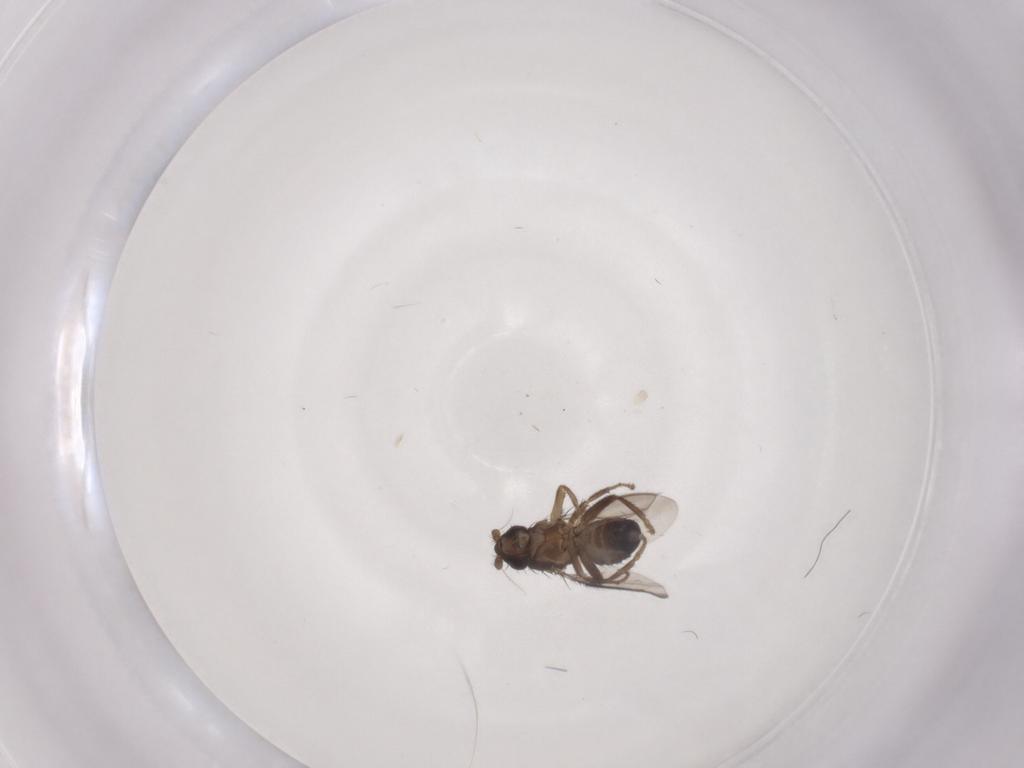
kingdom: Animalia
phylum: Arthropoda
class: Insecta
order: Diptera
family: Sphaeroceridae
